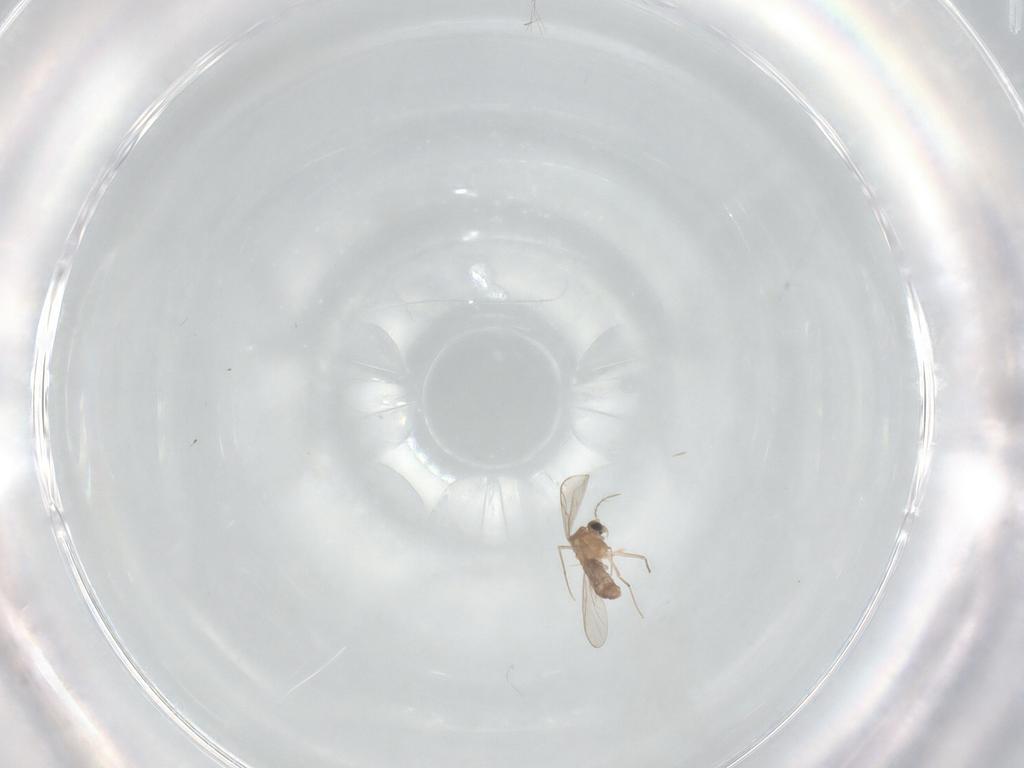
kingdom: Animalia
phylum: Arthropoda
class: Insecta
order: Diptera
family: Chironomidae
